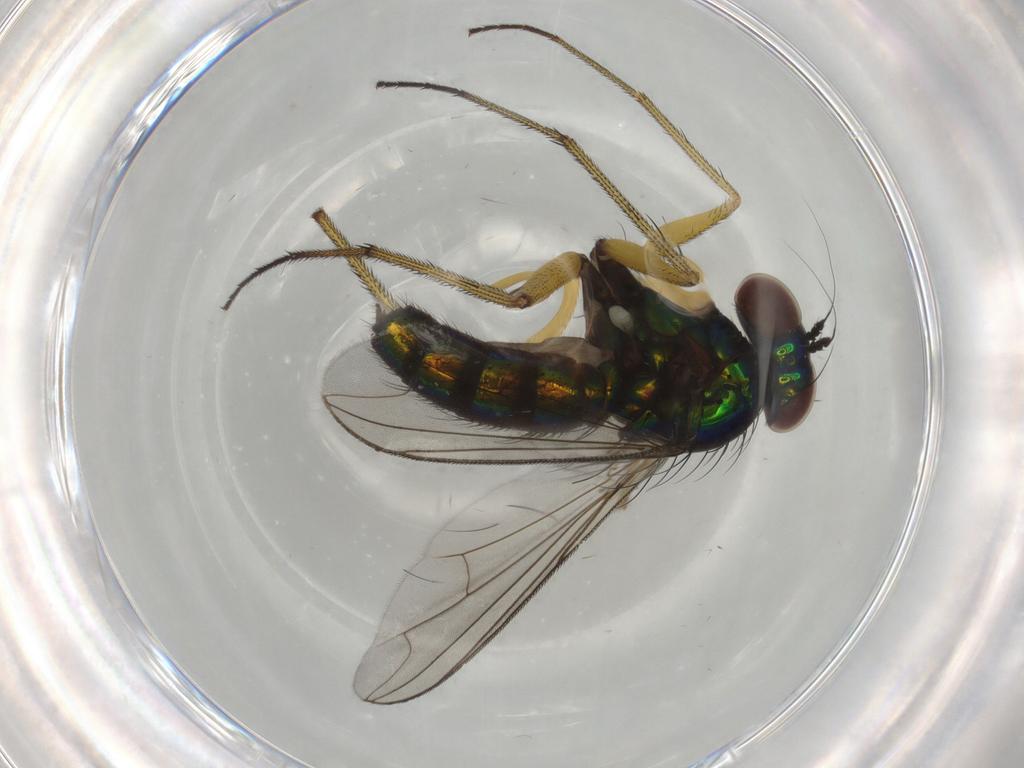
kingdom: Animalia
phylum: Arthropoda
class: Insecta
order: Diptera
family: Dolichopodidae
